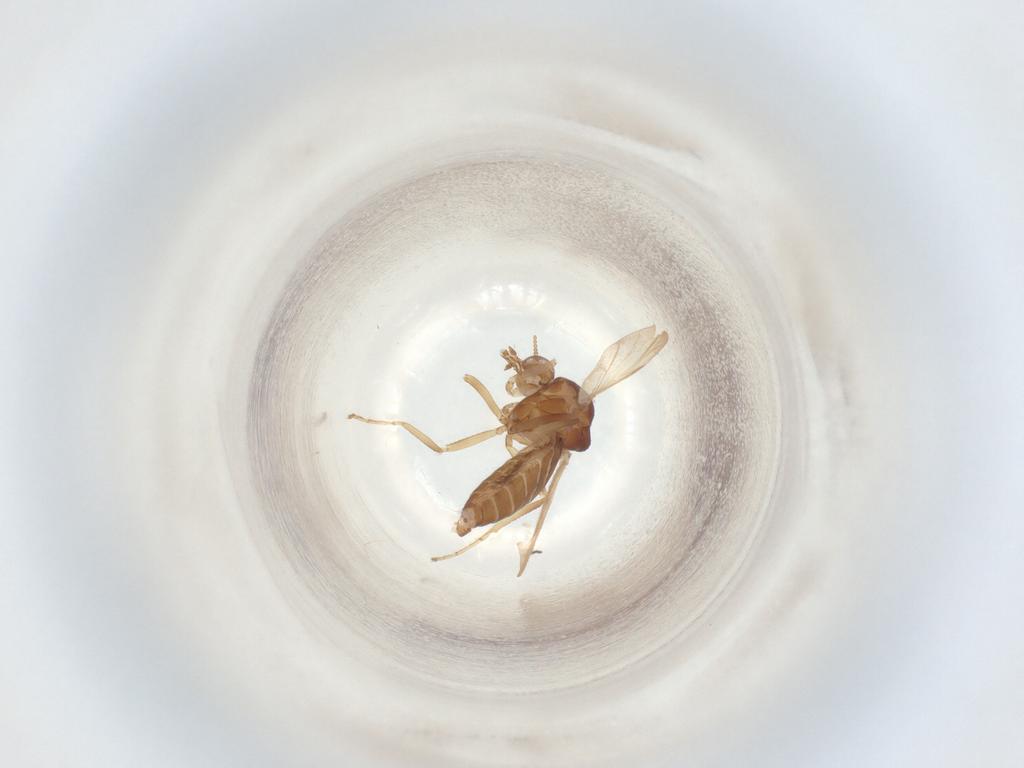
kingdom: Animalia
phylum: Arthropoda
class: Insecta
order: Diptera
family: Ceratopogonidae
